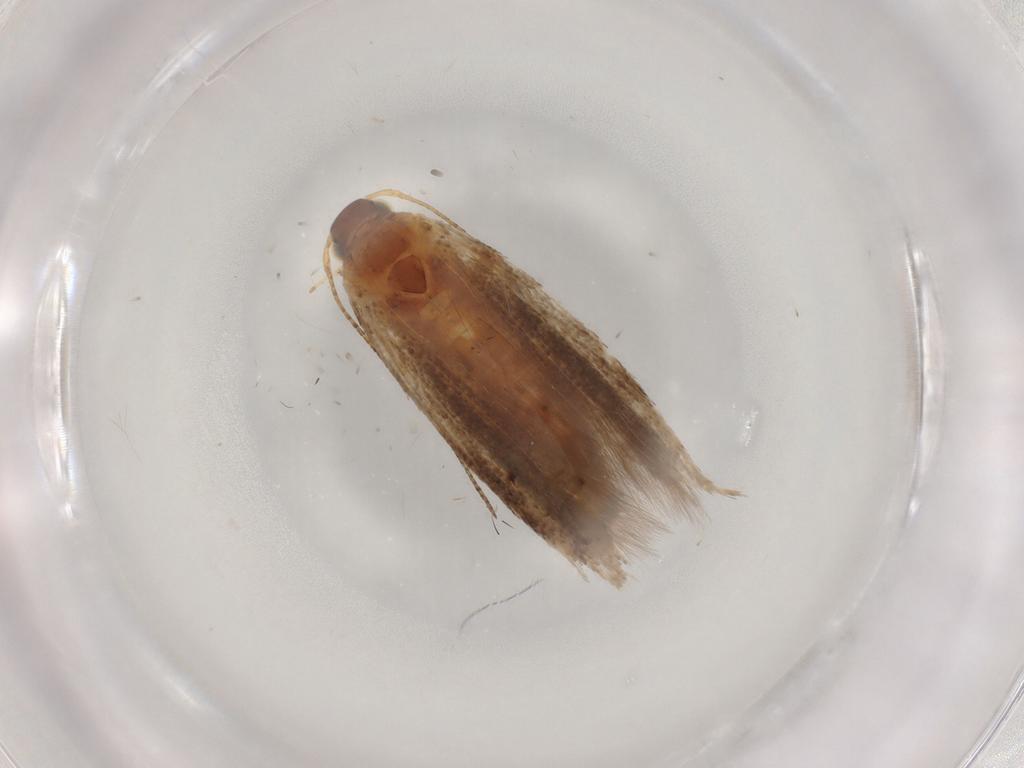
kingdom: Animalia
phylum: Arthropoda
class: Insecta
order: Lepidoptera
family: Gelechiidae
